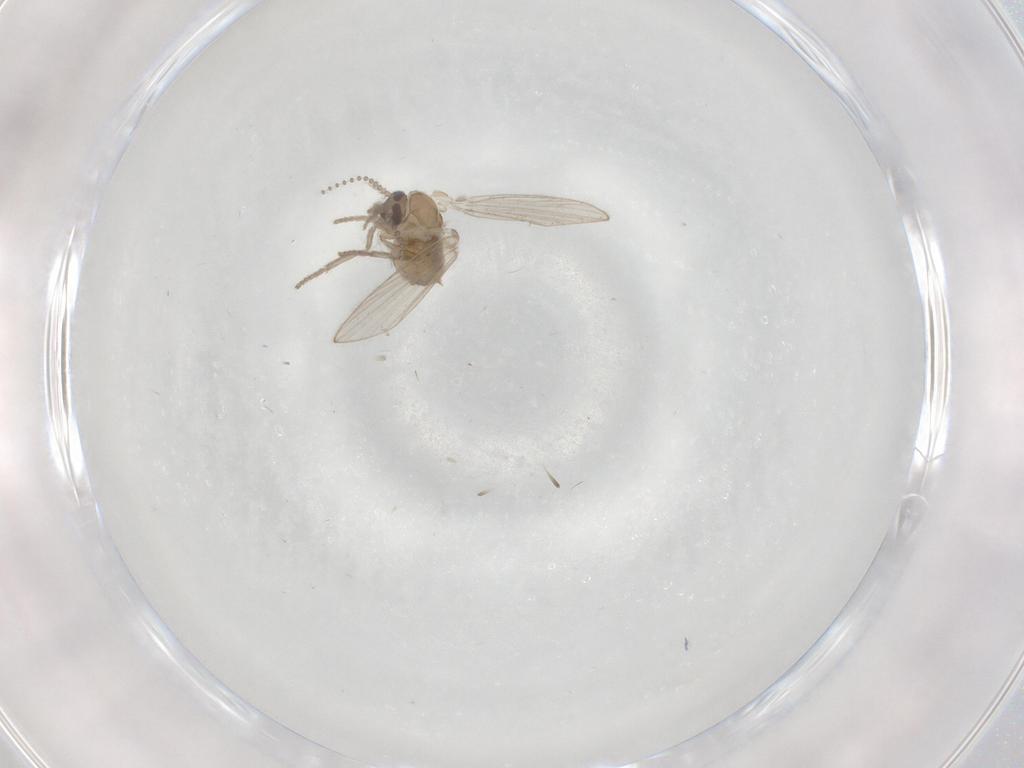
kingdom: Animalia
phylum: Arthropoda
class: Insecta
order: Diptera
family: Psychodidae
